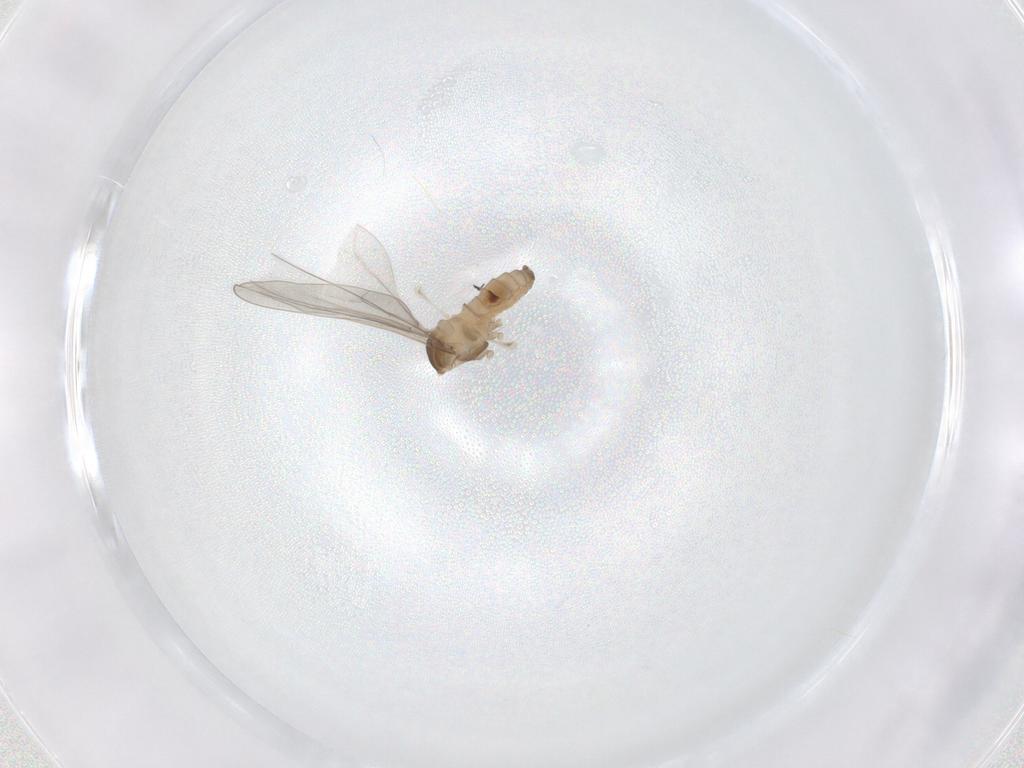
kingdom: Animalia
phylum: Arthropoda
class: Insecta
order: Diptera
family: Cecidomyiidae
